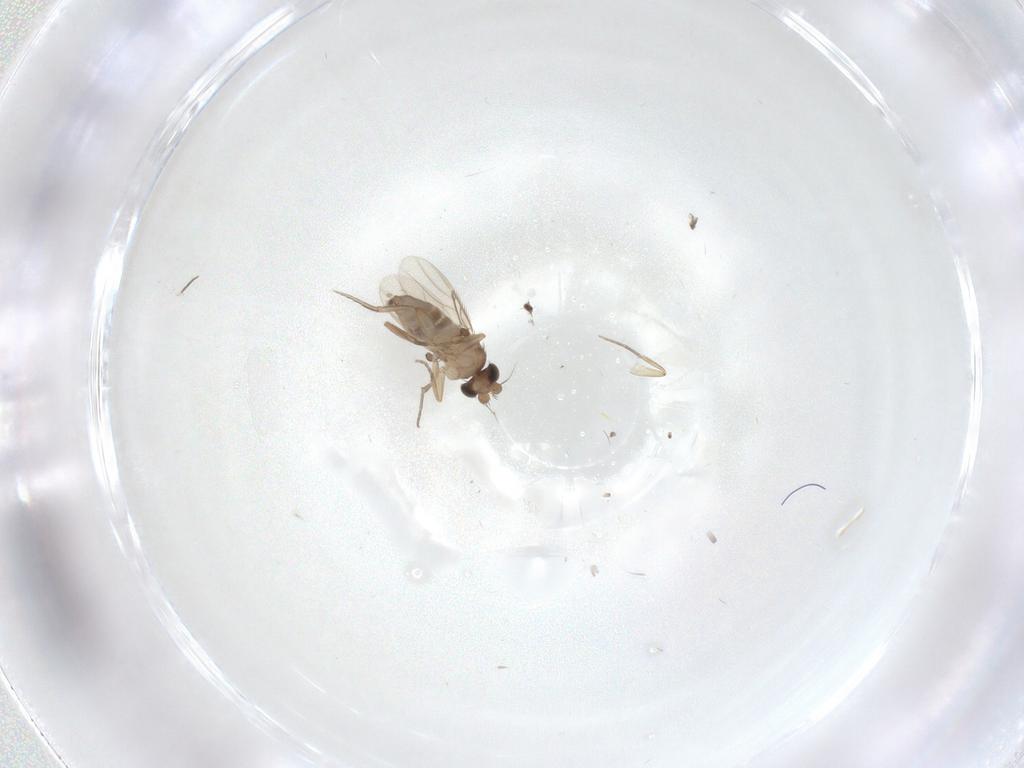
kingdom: Animalia
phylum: Arthropoda
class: Insecta
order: Diptera
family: Phoridae
